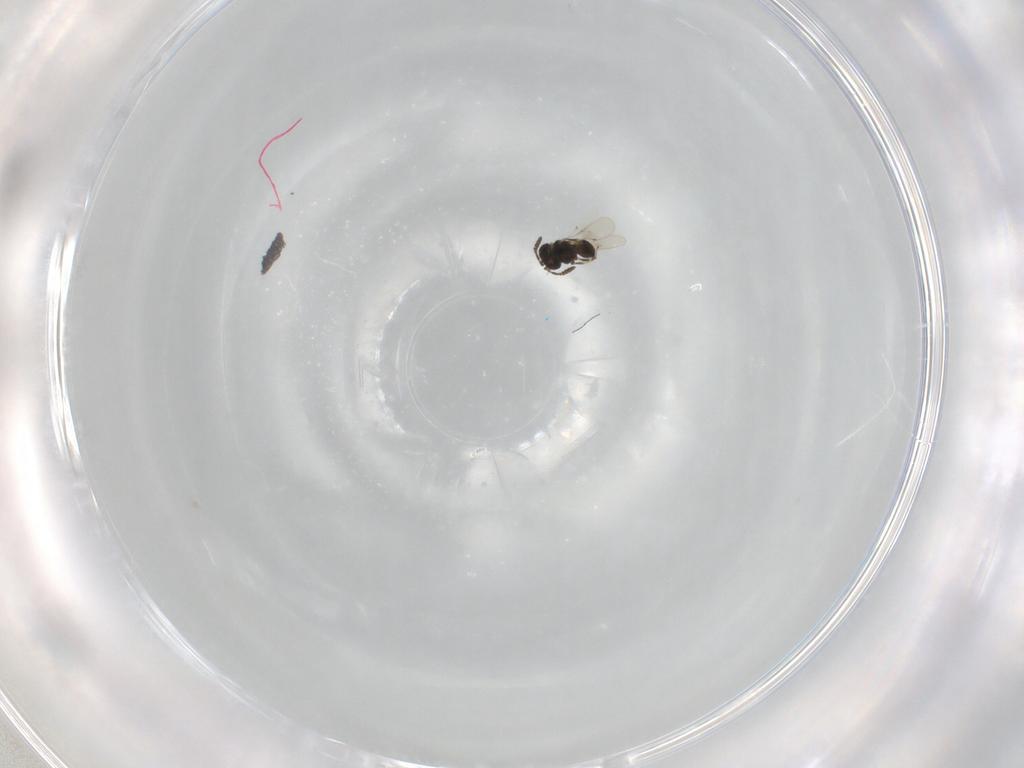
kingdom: Animalia
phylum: Arthropoda
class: Insecta
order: Hymenoptera
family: Scelionidae
